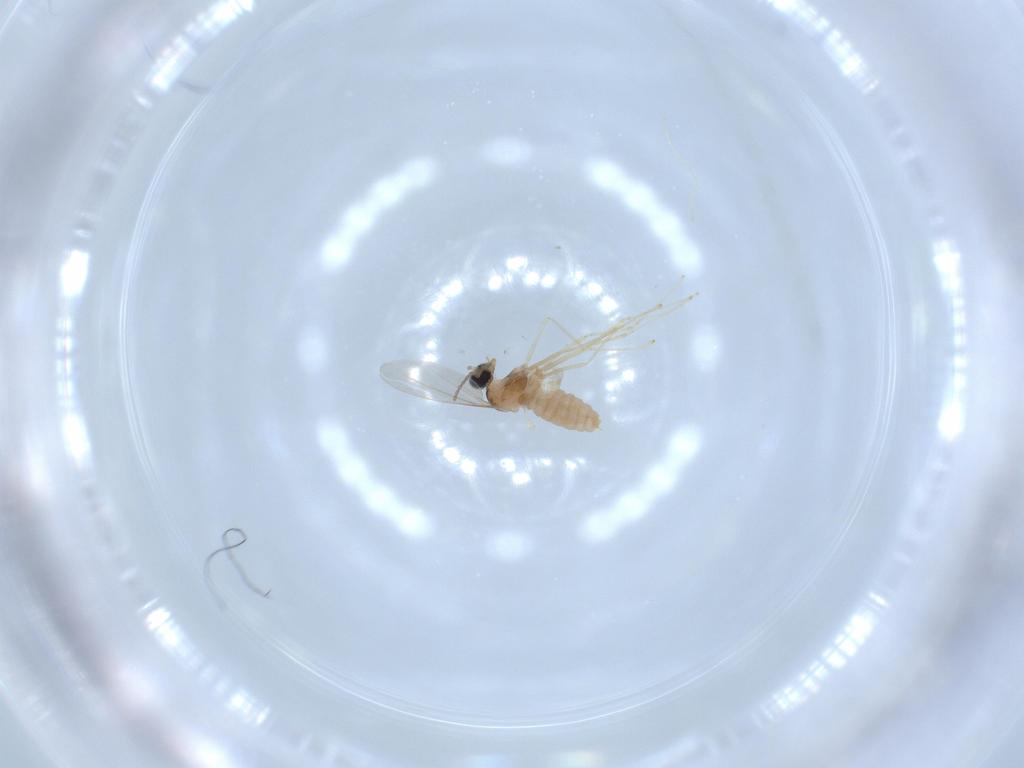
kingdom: Animalia
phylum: Arthropoda
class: Insecta
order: Diptera
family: Cecidomyiidae
